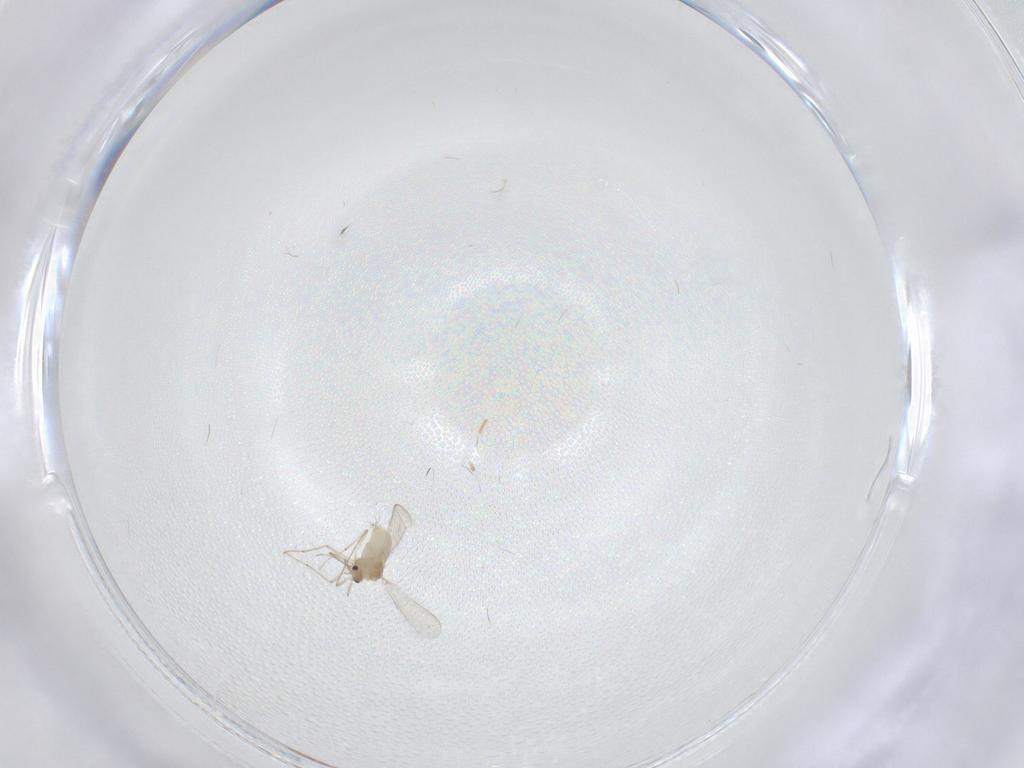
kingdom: Animalia
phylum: Arthropoda
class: Insecta
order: Diptera
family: Chironomidae
